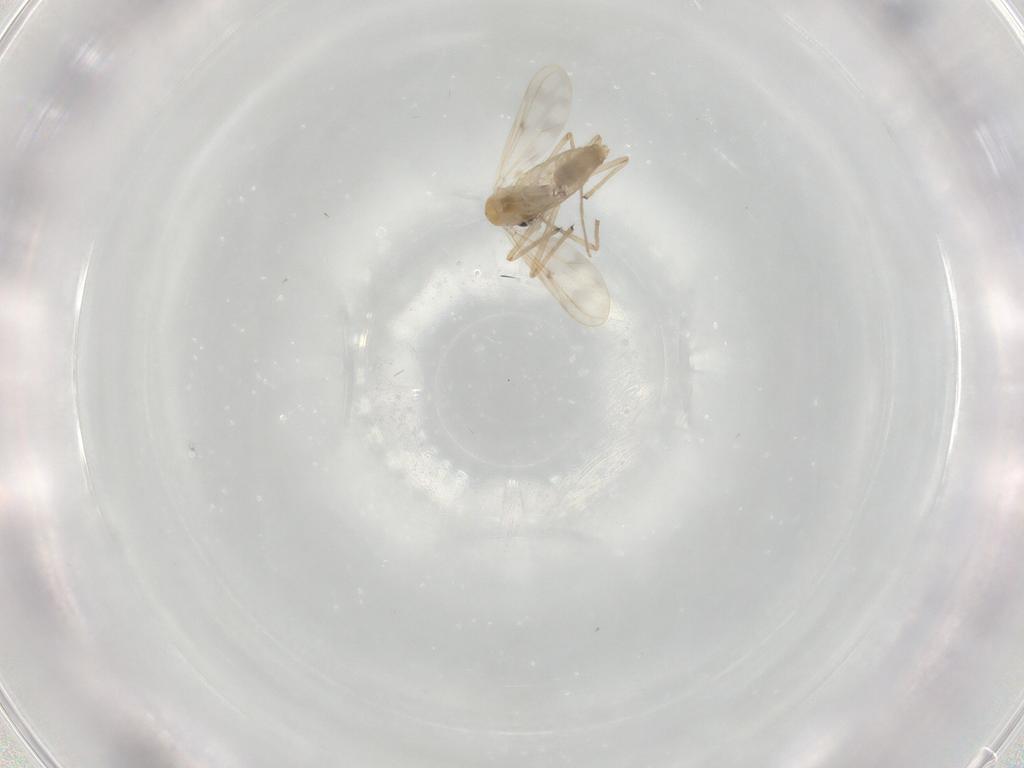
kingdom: Animalia
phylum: Arthropoda
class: Insecta
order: Diptera
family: Chironomidae
